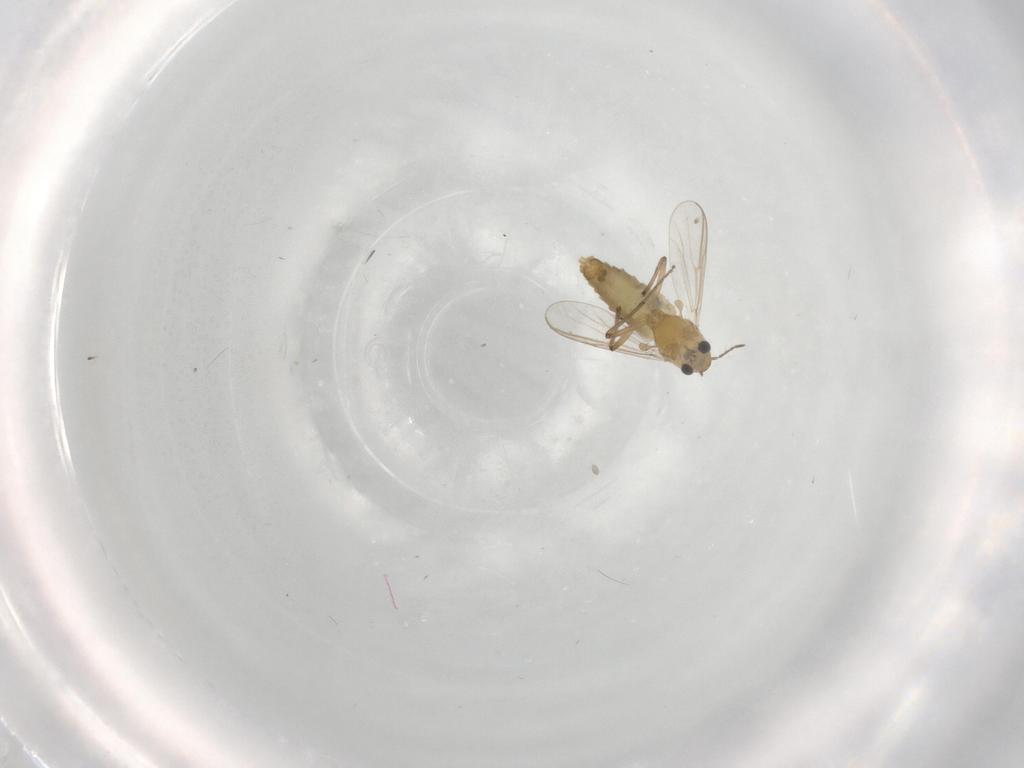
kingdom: Animalia
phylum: Arthropoda
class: Insecta
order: Diptera
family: Chironomidae
